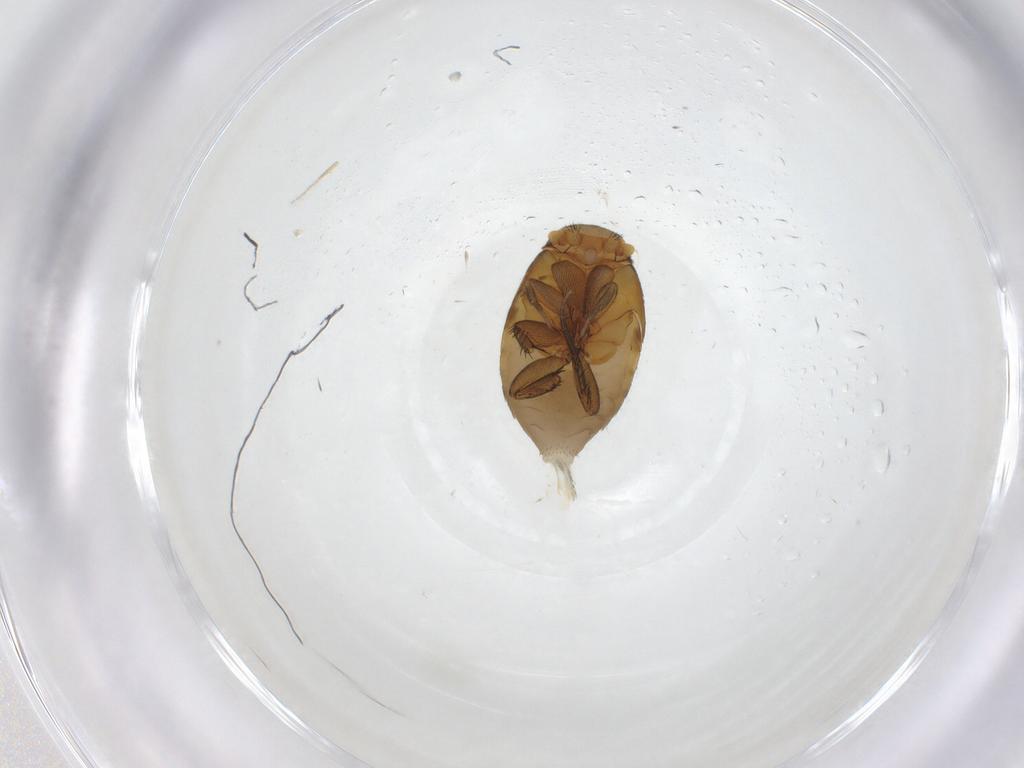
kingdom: Animalia
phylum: Arthropoda
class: Insecta
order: Diptera
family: Phoridae
